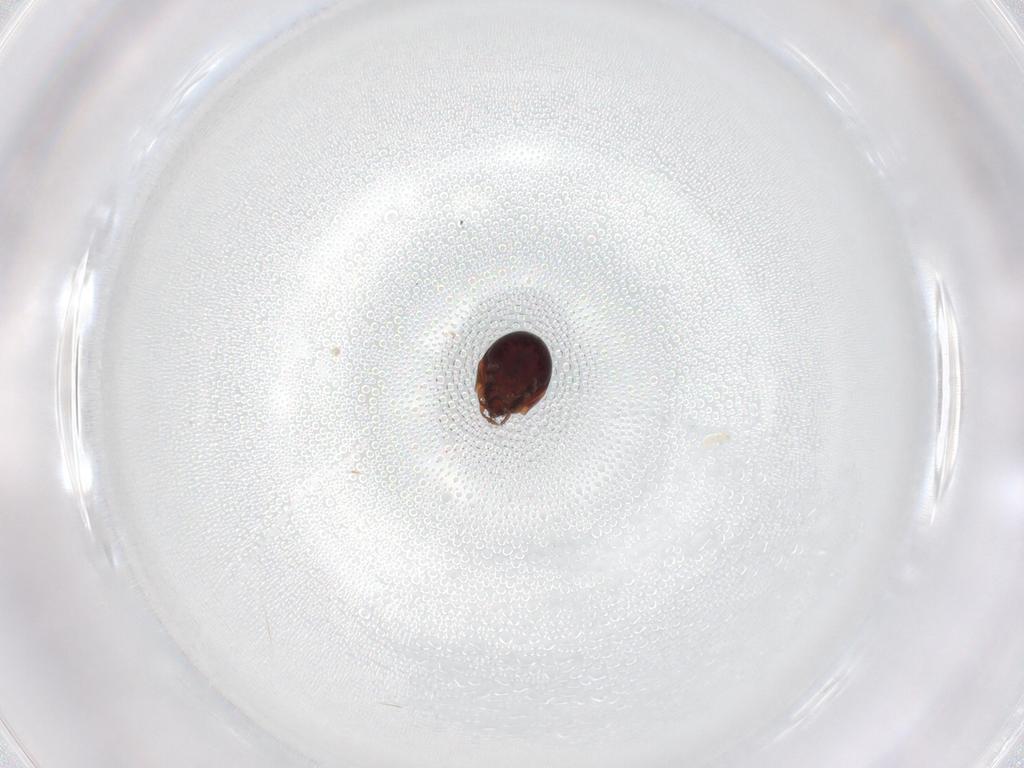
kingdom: Animalia
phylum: Arthropoda
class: Arachnida
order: Sarcoptiformes
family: Humerobatidae
